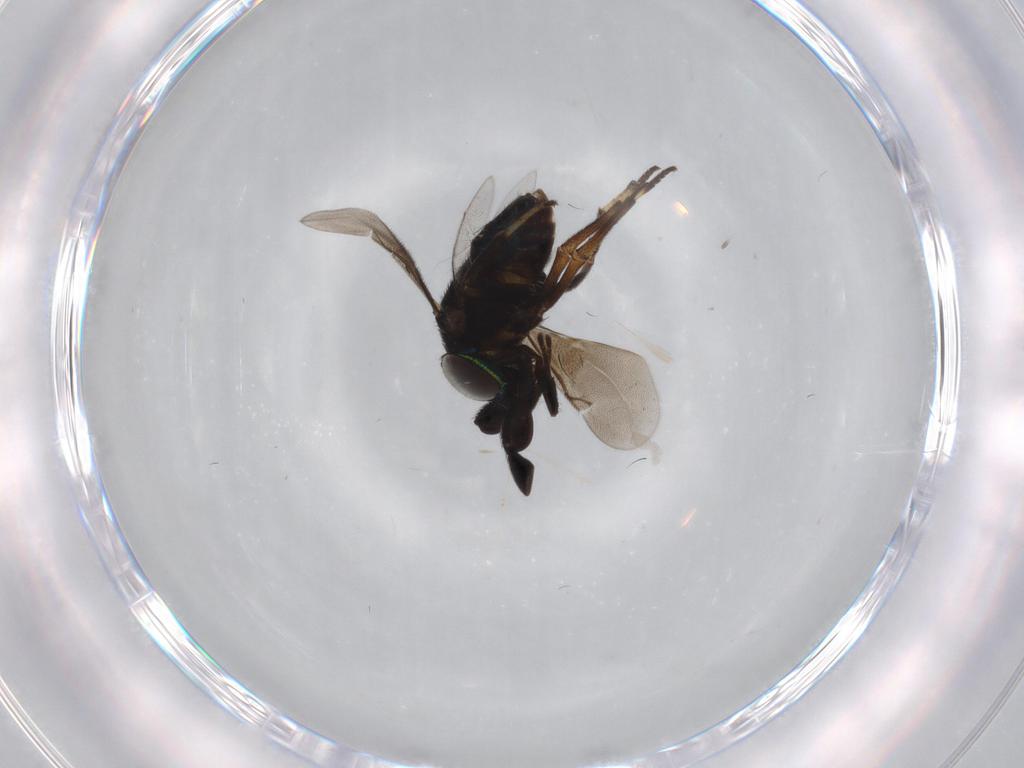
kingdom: Animalia
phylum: Arthropoda
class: Insecta
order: Hymenoptera
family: Encyrtidae
